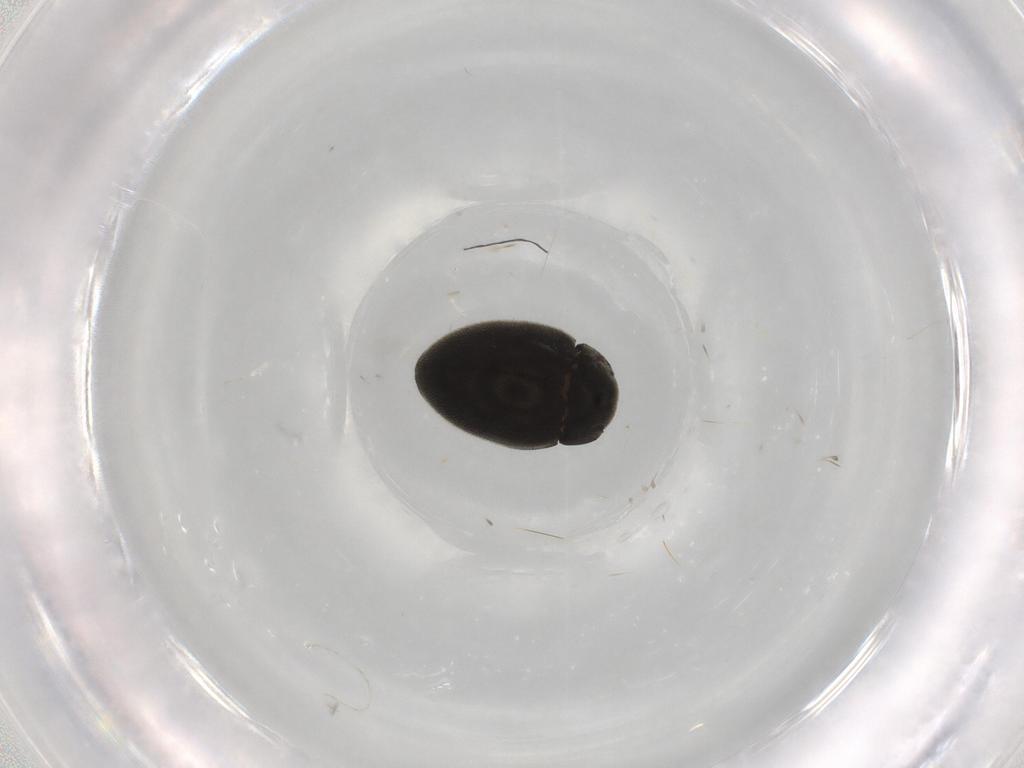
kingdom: Animalia
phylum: Arthropoda
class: Insecta
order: Coleoptera
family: Limnichidae
